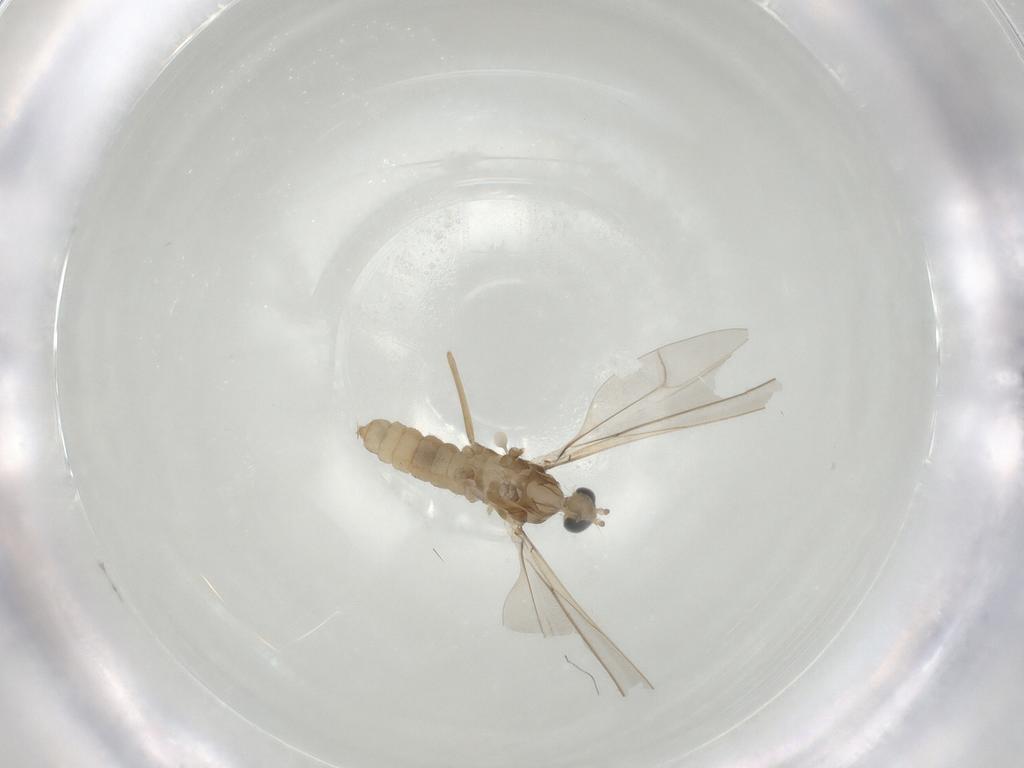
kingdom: Animalia
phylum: Arthropoda
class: Insecta
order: Diptera
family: Cecidomyiidae
